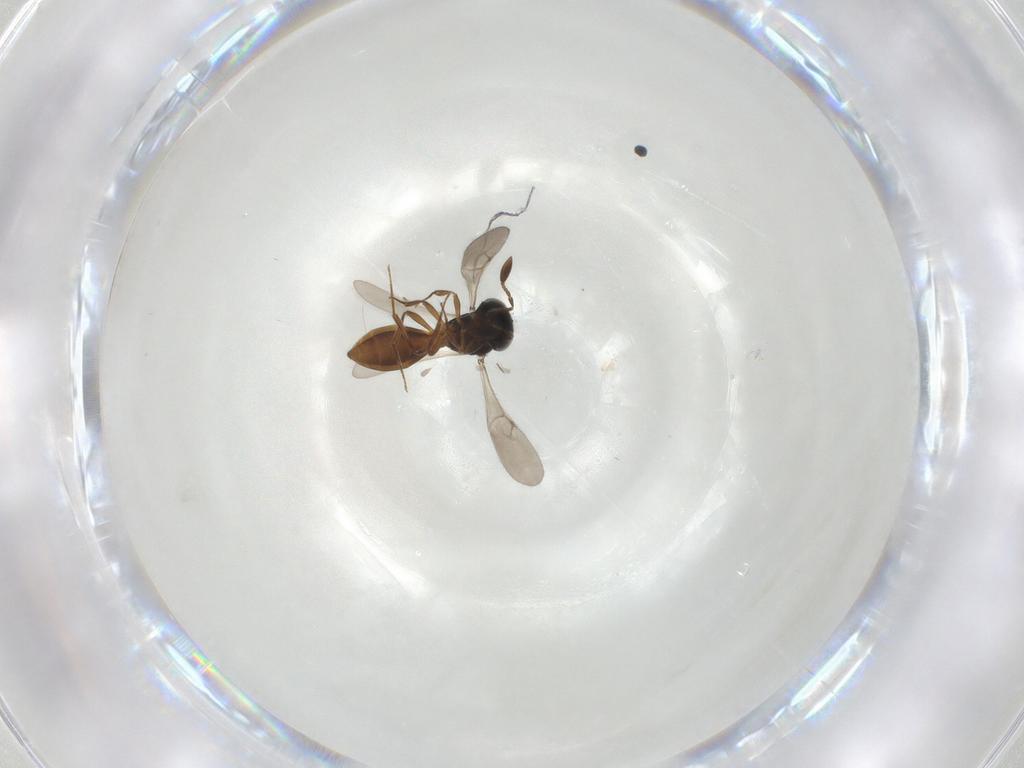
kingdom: Animalia
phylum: Arthropoda
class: Insecta
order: Hymenoptera
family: Scelionidae
